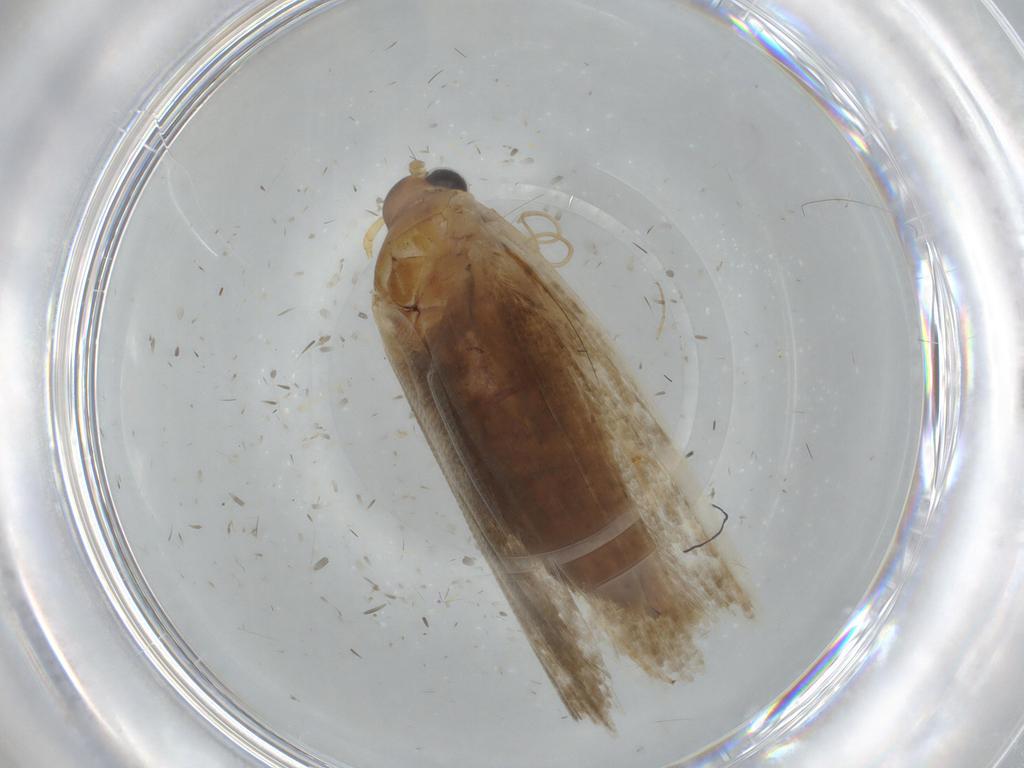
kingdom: Animalia
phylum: Arthropoda
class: Insecta
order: Lepidoptera
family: Blastobasidae
